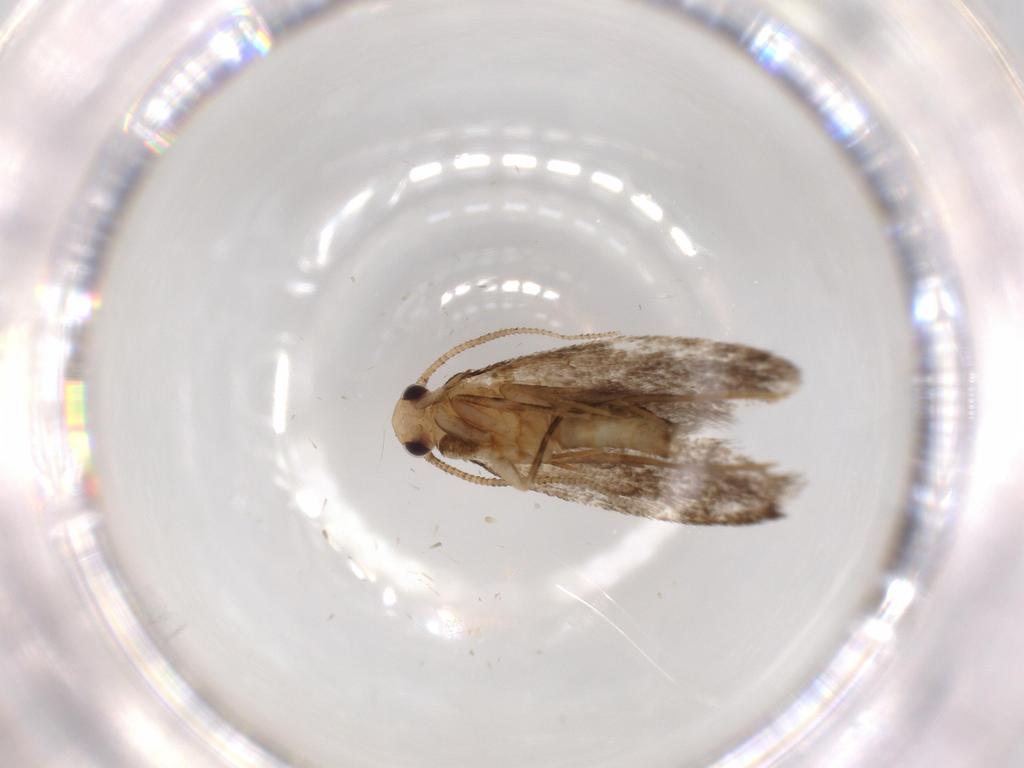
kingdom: Animalia
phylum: Arthropoda
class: Insecta
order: Lepidoptera
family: Tineidae
